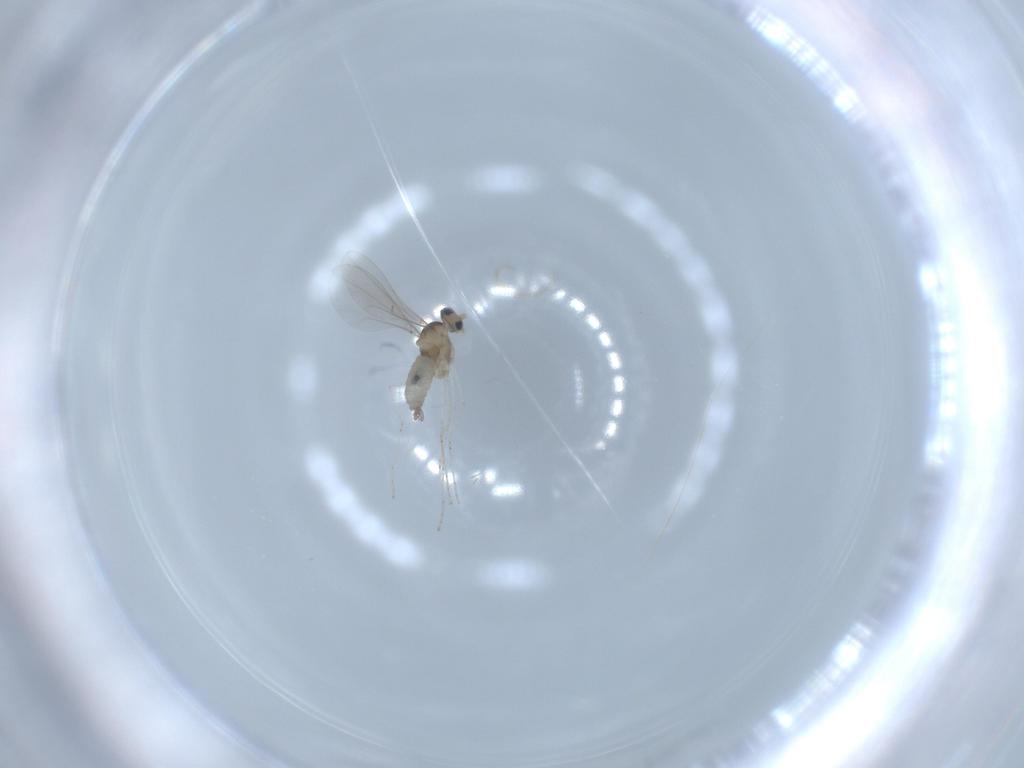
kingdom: Animalia
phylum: Arthropoda
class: Insecta
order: Diptera
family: Cecidomyiidae
